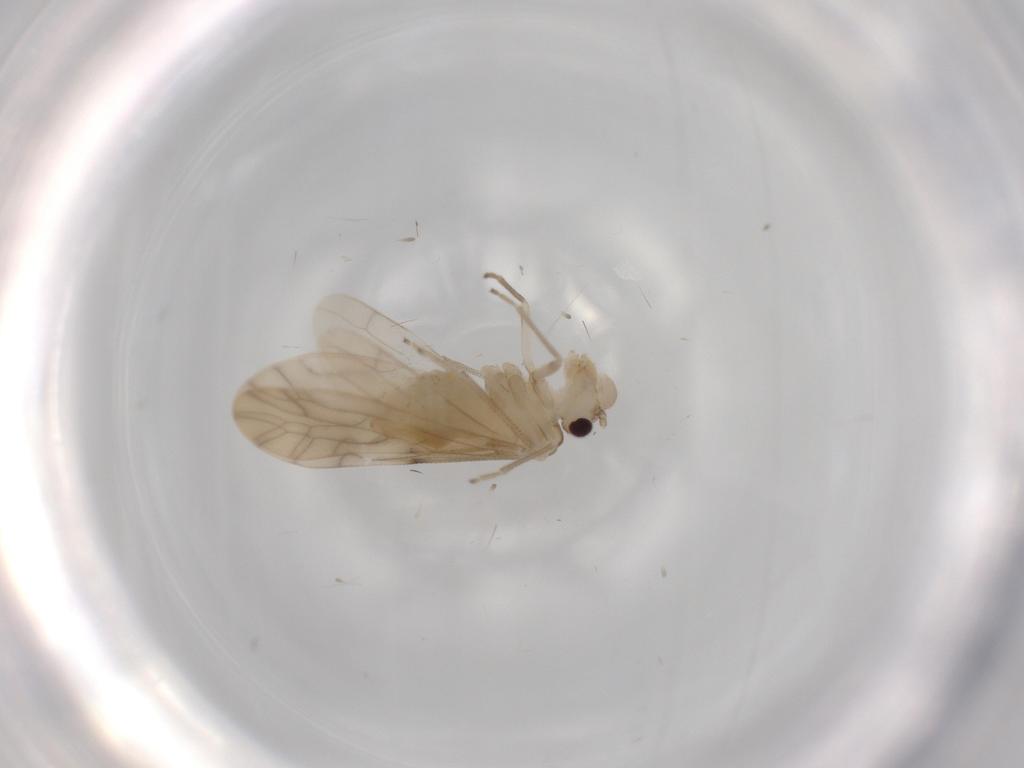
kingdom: Animalia
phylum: Arthropoda
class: Insecta
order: Psocodea
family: Caeciliusidae
